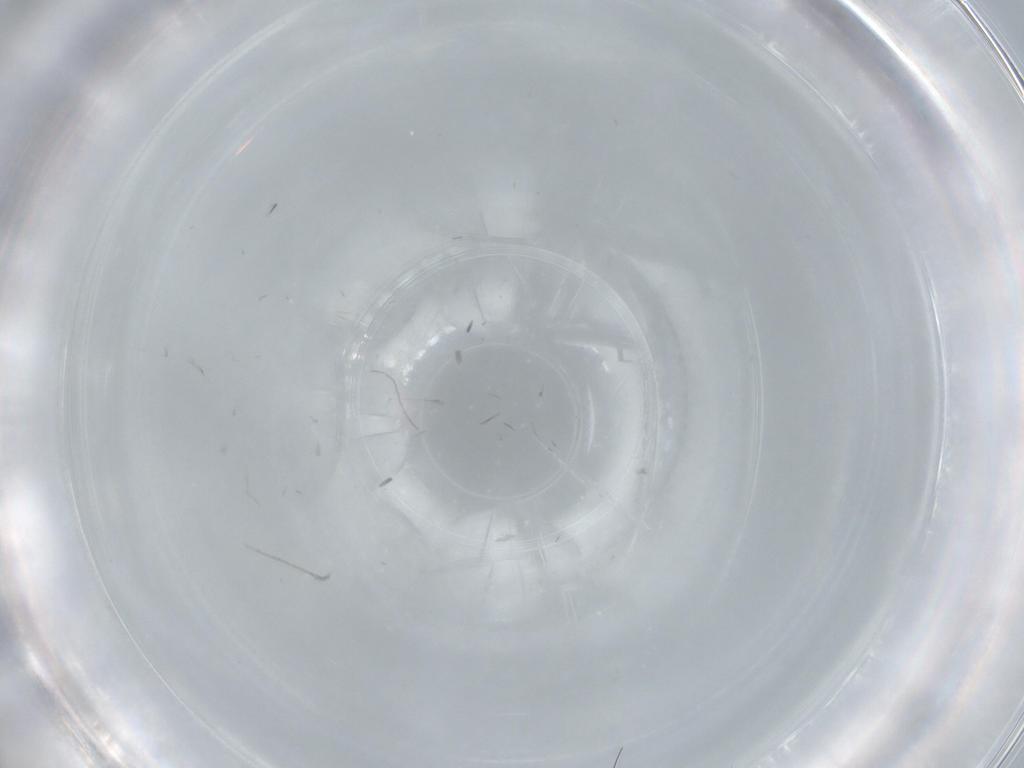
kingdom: Animalia
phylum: Arthropoda
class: Insecta
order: Diptera
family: Cecidomyiidae
